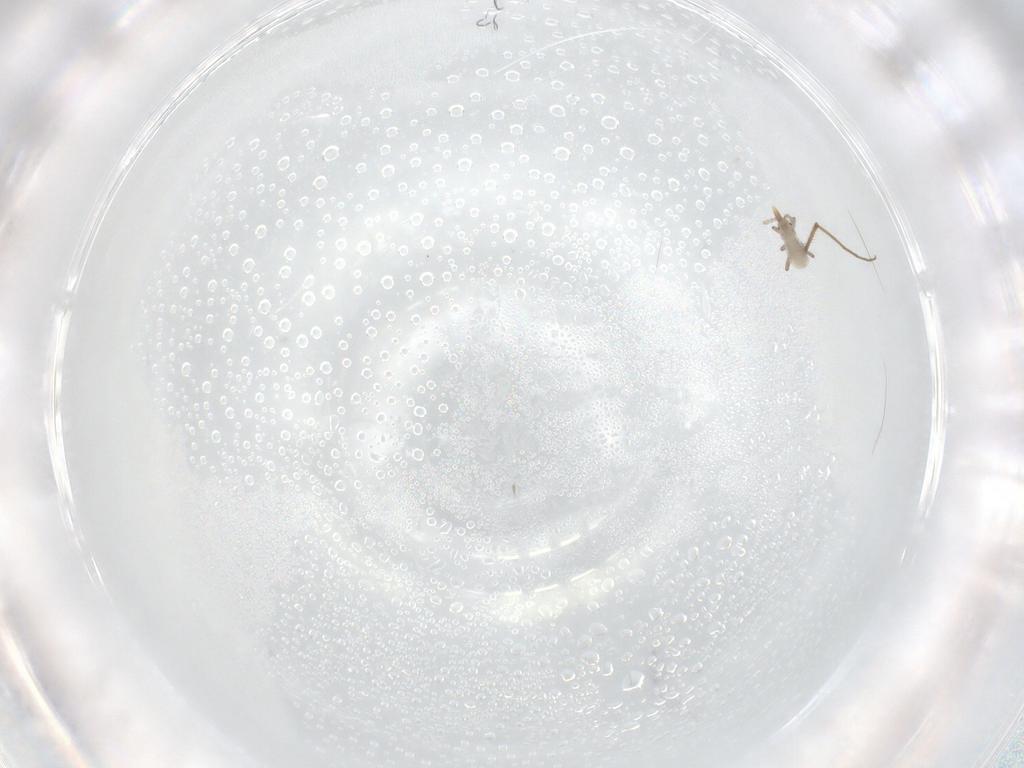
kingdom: Animalia
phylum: Arthropoda
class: Insecta
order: Hemiptera
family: Aphididae
